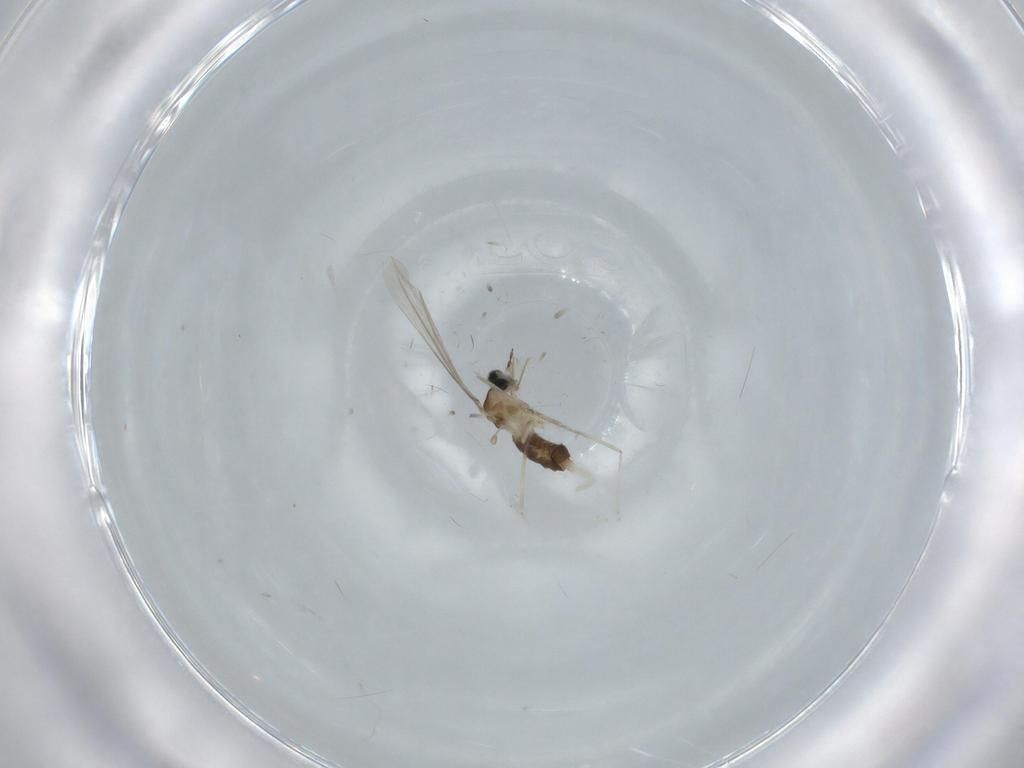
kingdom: Animalia
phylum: Arthropoda
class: Insecta
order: Diptera
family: Cecidomyiidae
